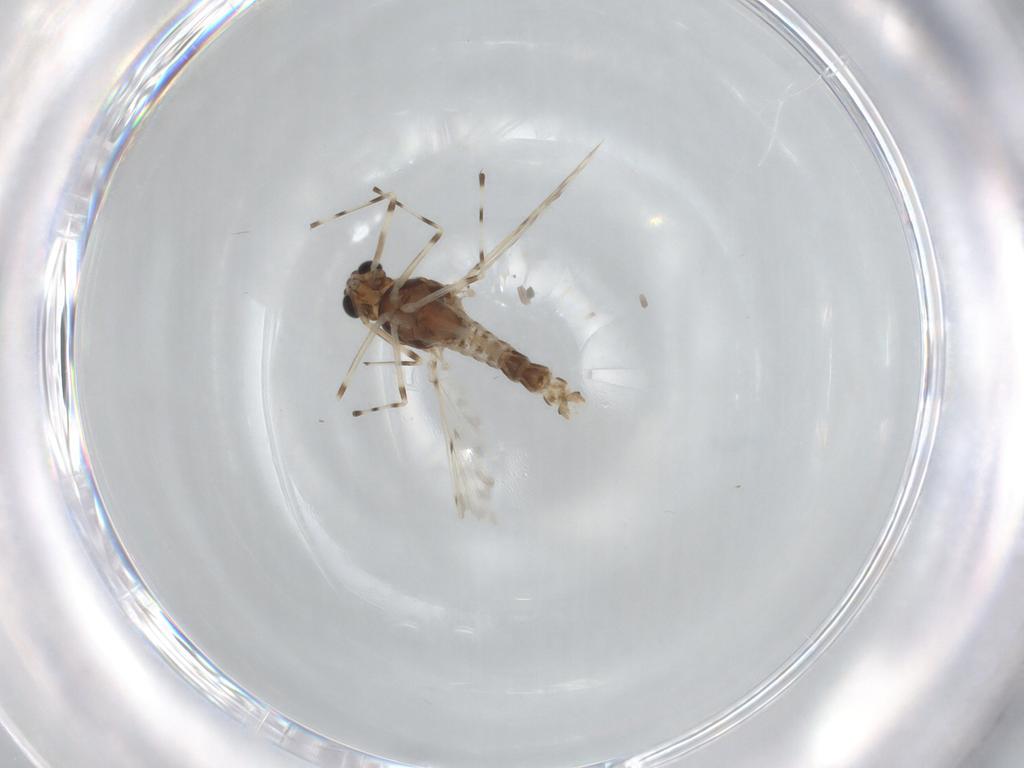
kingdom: Animalia
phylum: Arthropoda
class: Insecta
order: Diptera
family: Chironomidae
